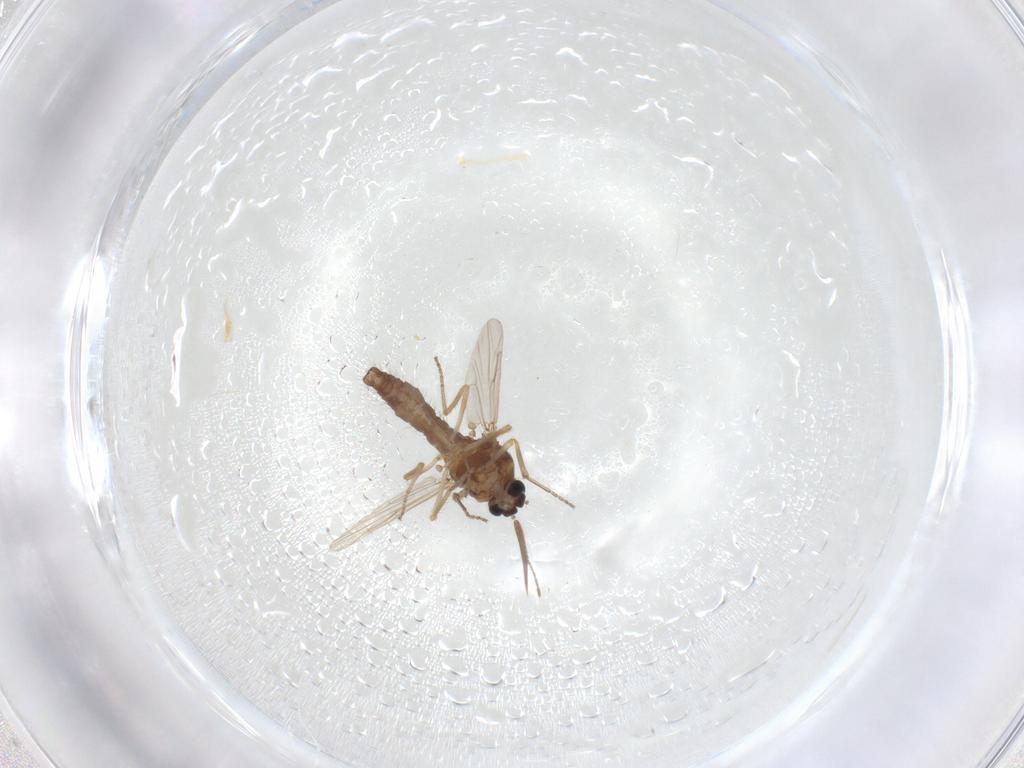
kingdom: Animalia
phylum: Arthropoda
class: Insecta
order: Diptera
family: Ceratopogonidae
